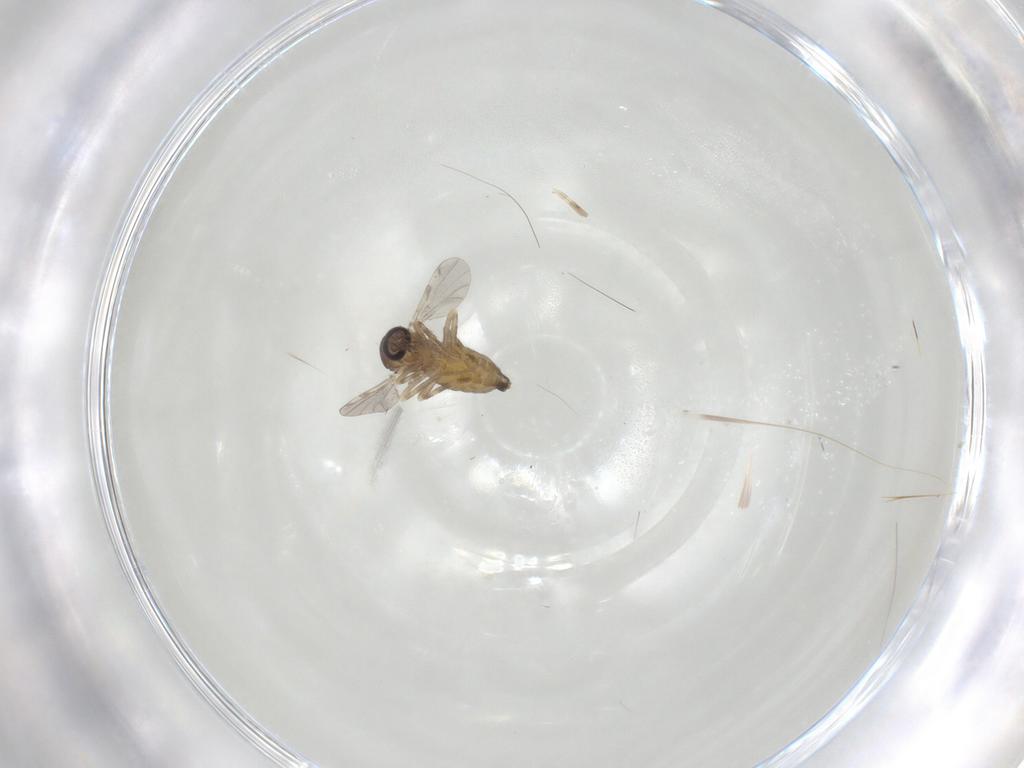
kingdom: Animalia
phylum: Arthropoda
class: Insecta
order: Diptera
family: Ceratopogonidae
